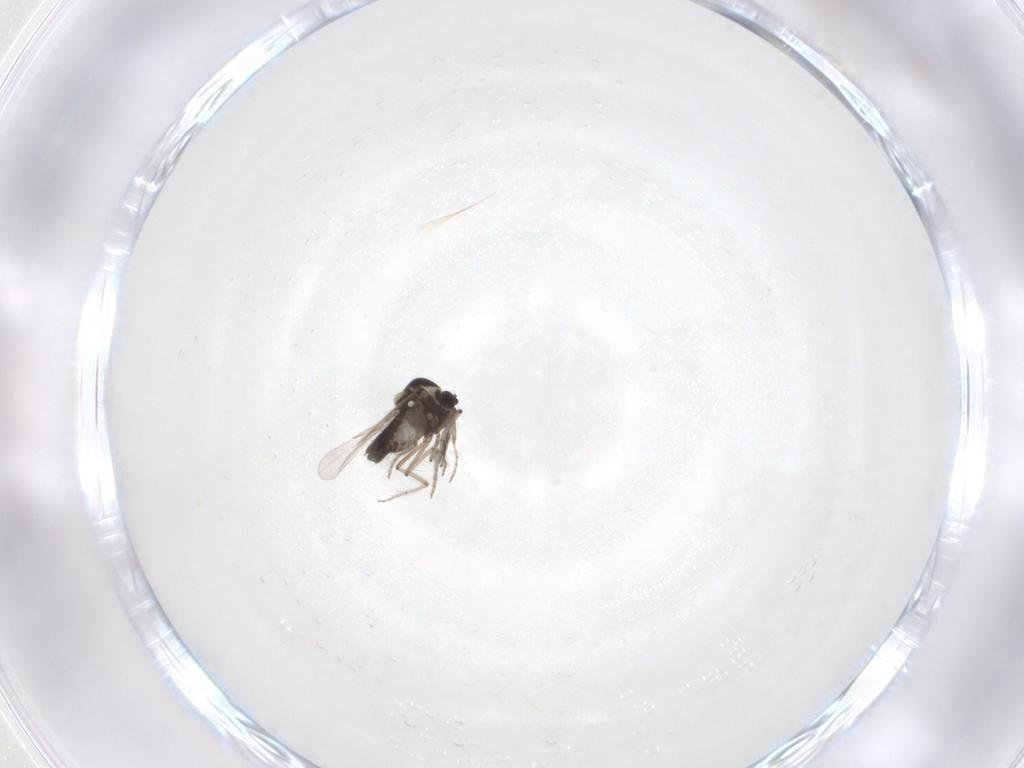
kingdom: Animalia
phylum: Arthropoda
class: Insecta
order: Diptera
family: Ceratopogonidae
